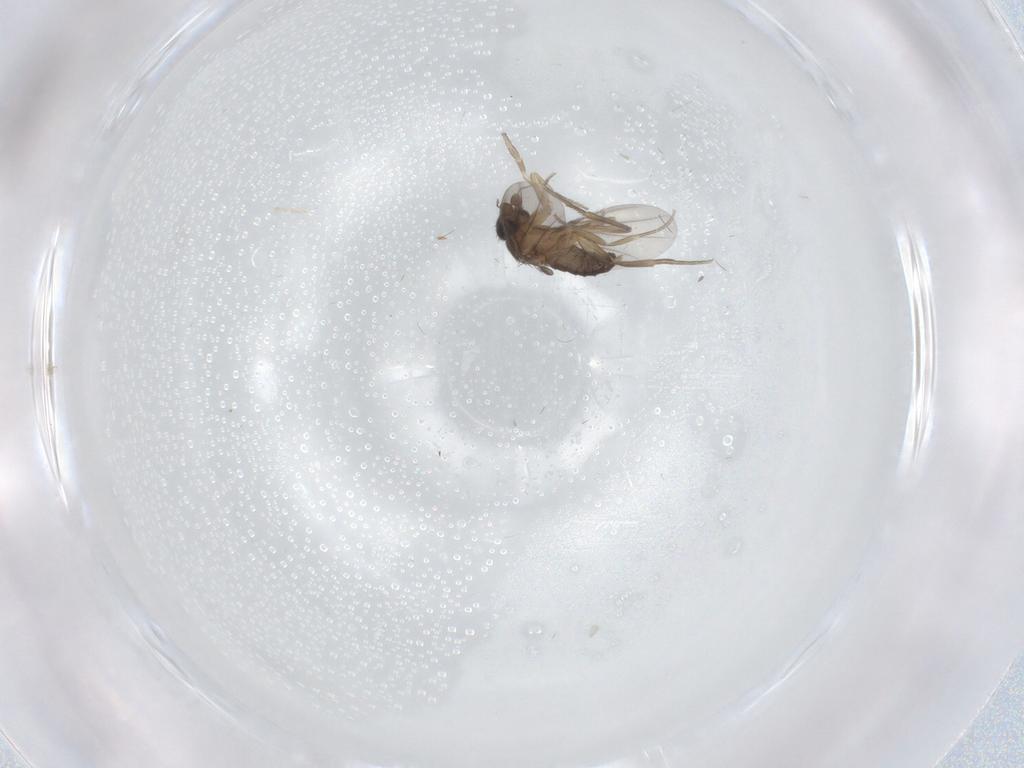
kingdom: Animalia
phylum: Arthropoda
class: Insecta
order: Diptera
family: Phoridae
